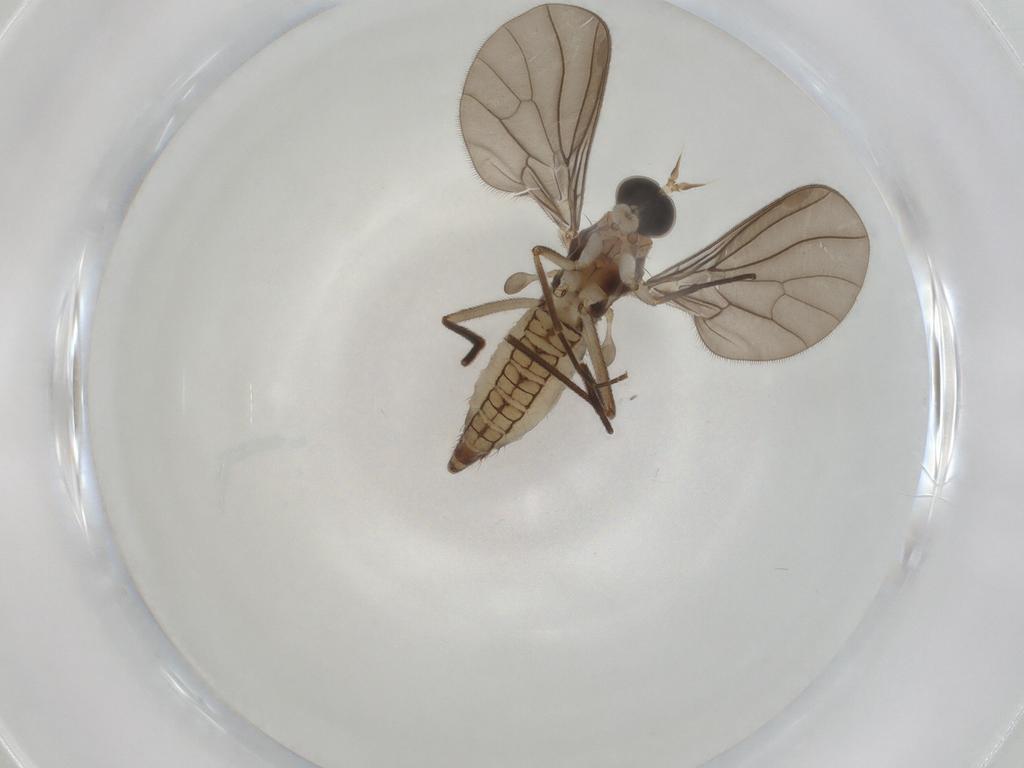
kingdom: Animalia
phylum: Arthropoda
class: Insecta
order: Diptera
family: Empididae
